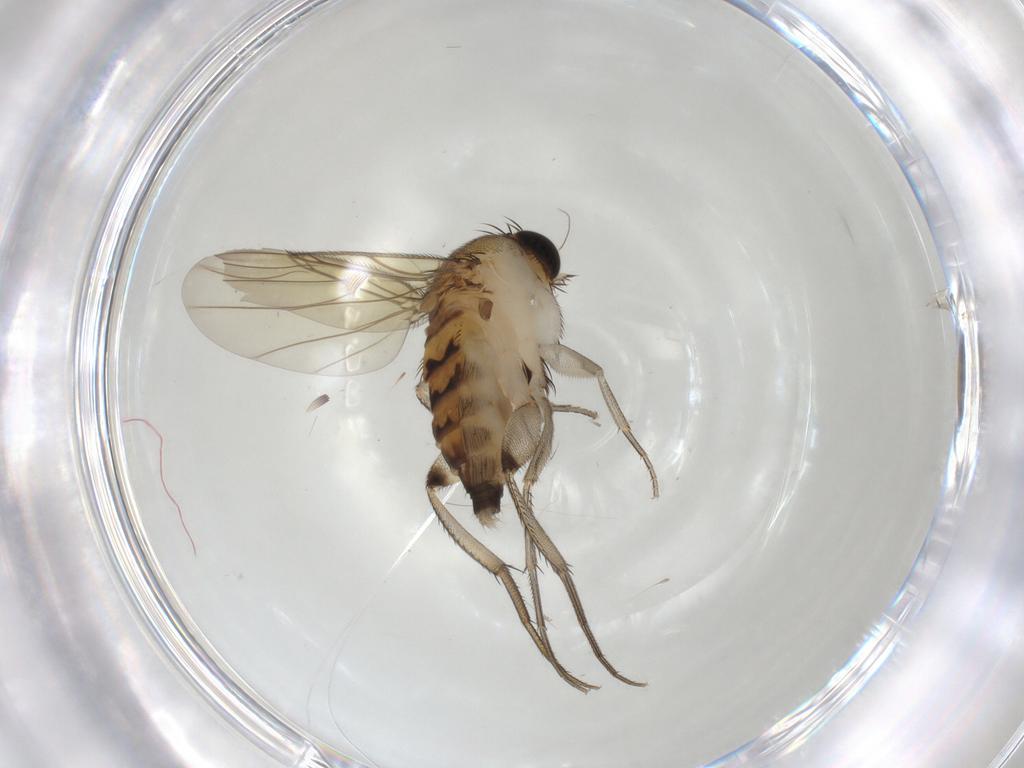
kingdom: Animalia
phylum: Arthropoda
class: Insecta
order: Diptera
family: Phoridae
